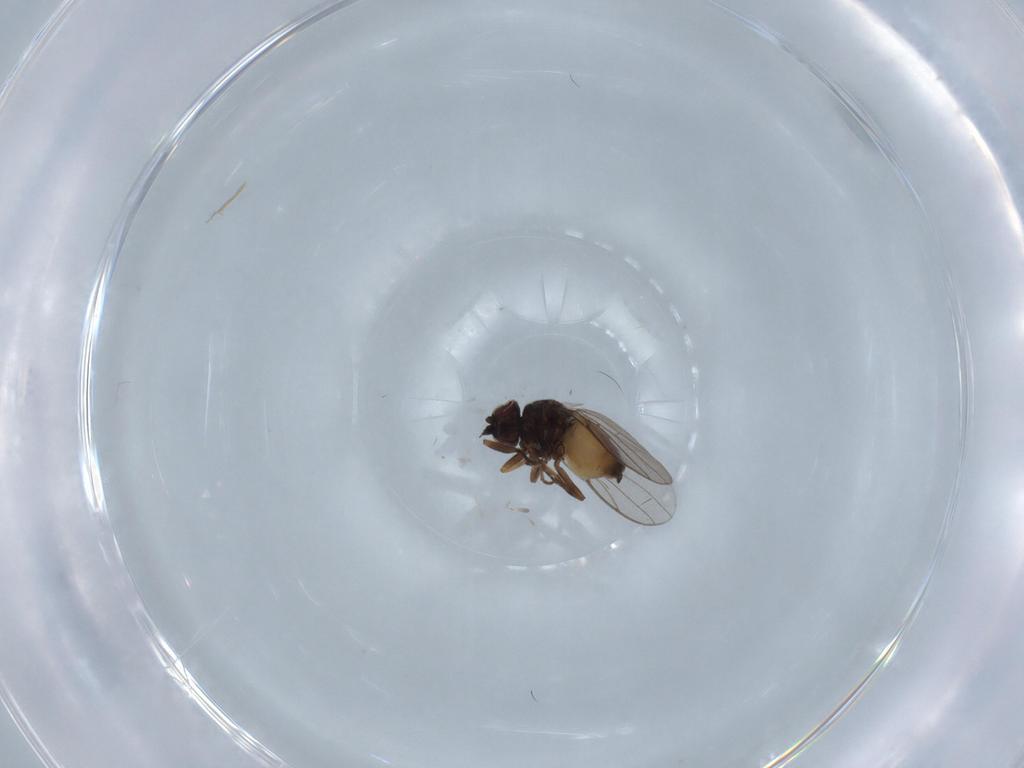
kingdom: Animalia
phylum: Arthropoda
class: Insecta
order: Diptera
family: Chloropidae
